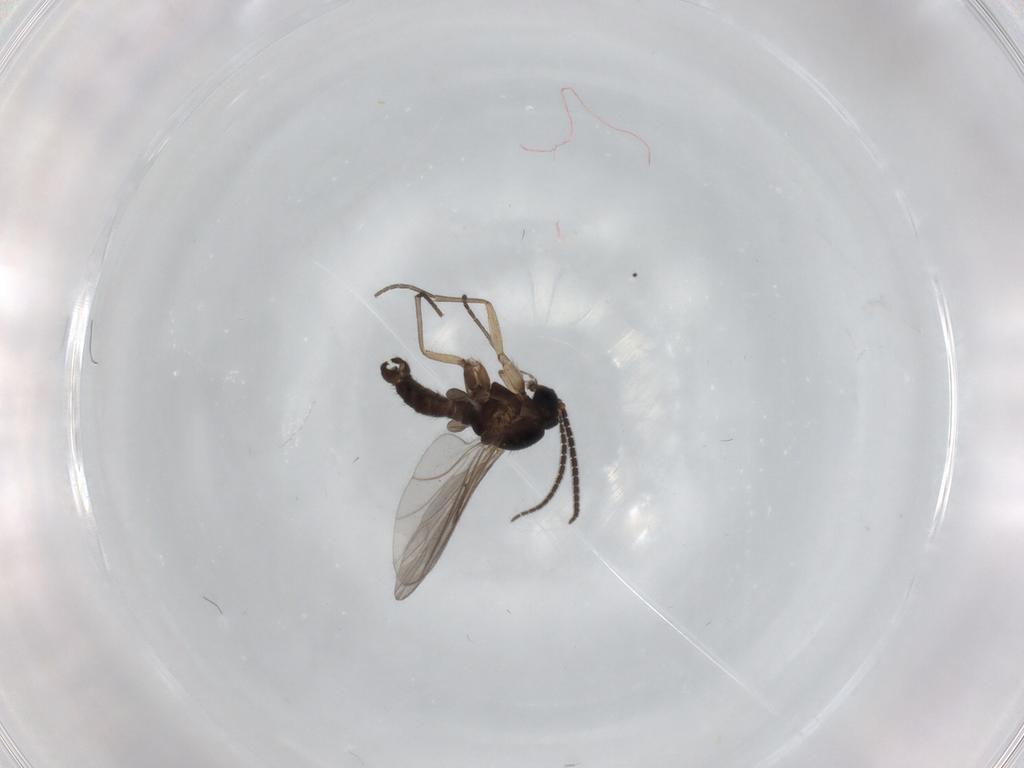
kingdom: Animalia
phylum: Arthropoda
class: Insecta
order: Diptera
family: Sciaridae
